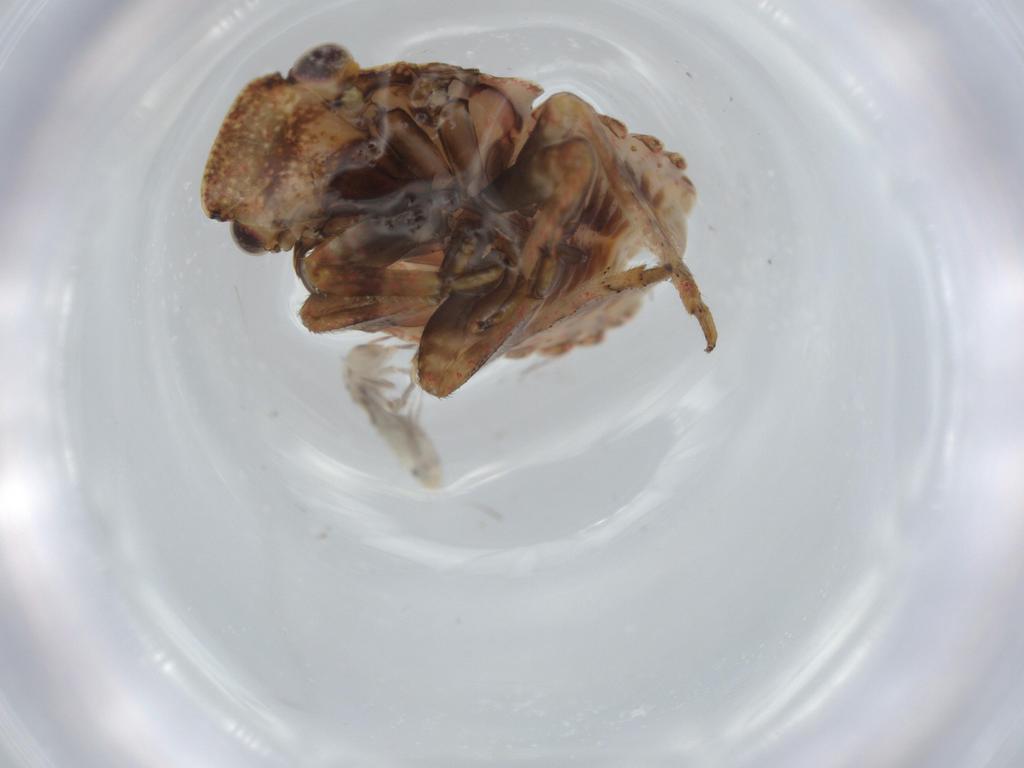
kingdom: Animalia
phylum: Arthropoda
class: Collembola
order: Entomobryomorpha
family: Entomobryidae
